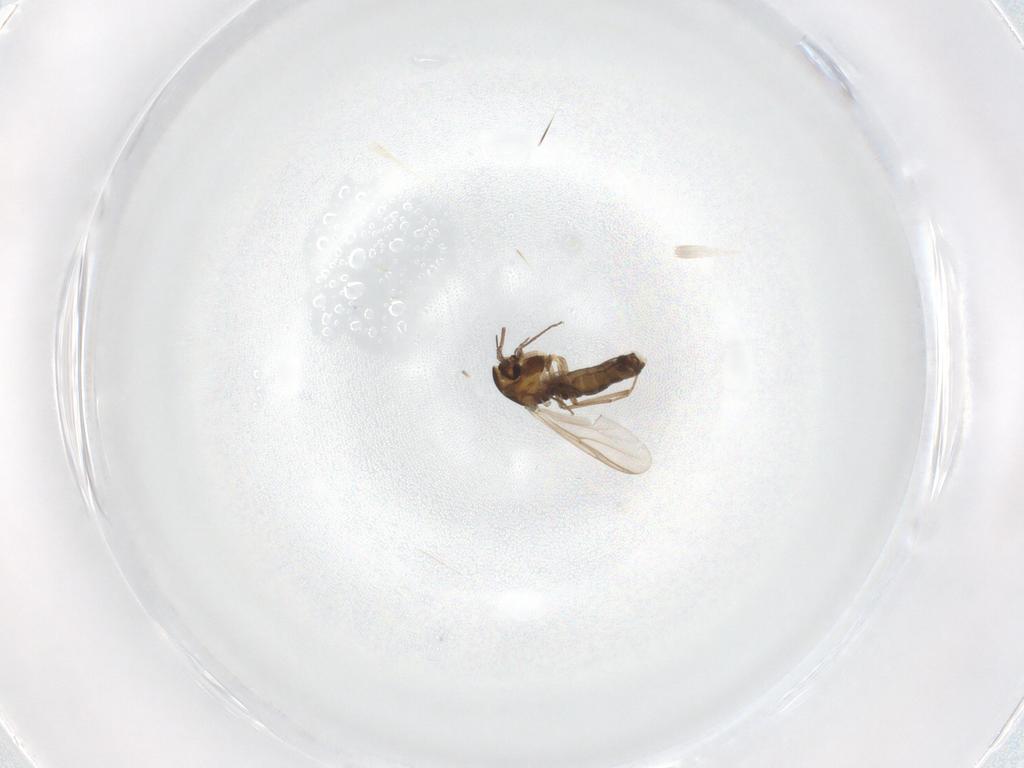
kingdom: Animalia
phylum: Arthropoda
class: Insecta
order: Diptera
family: Chironomidae
